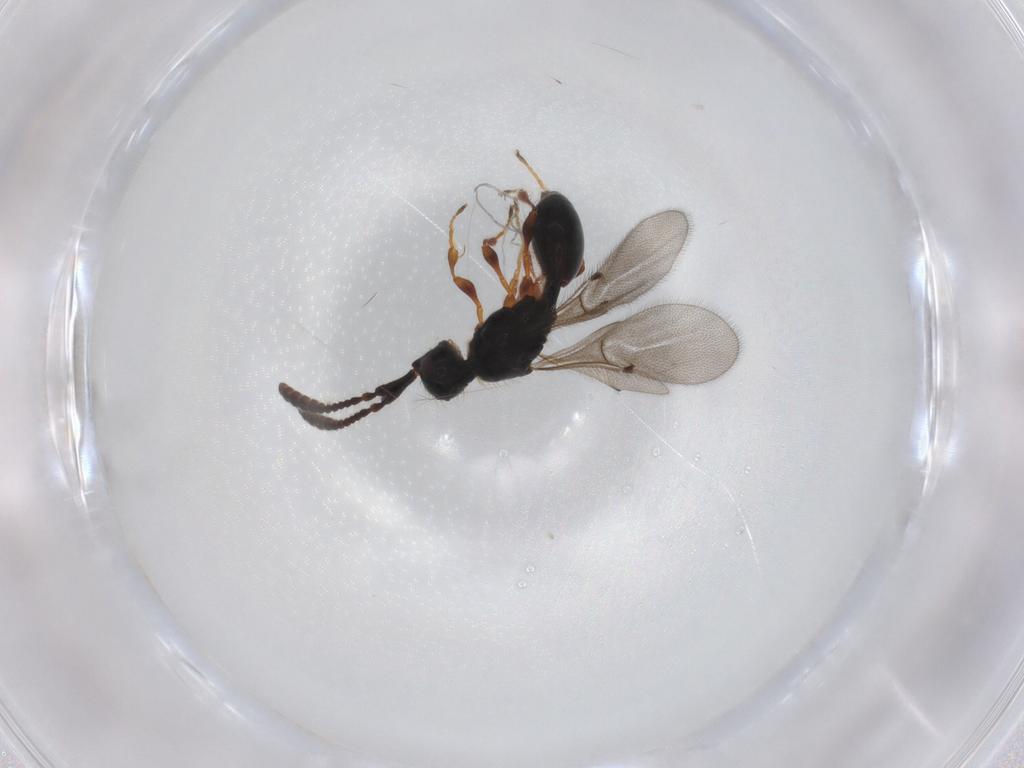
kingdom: Animalia
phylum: Arthropoda
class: Insecta
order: Hymenoptera
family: Diapriidae
